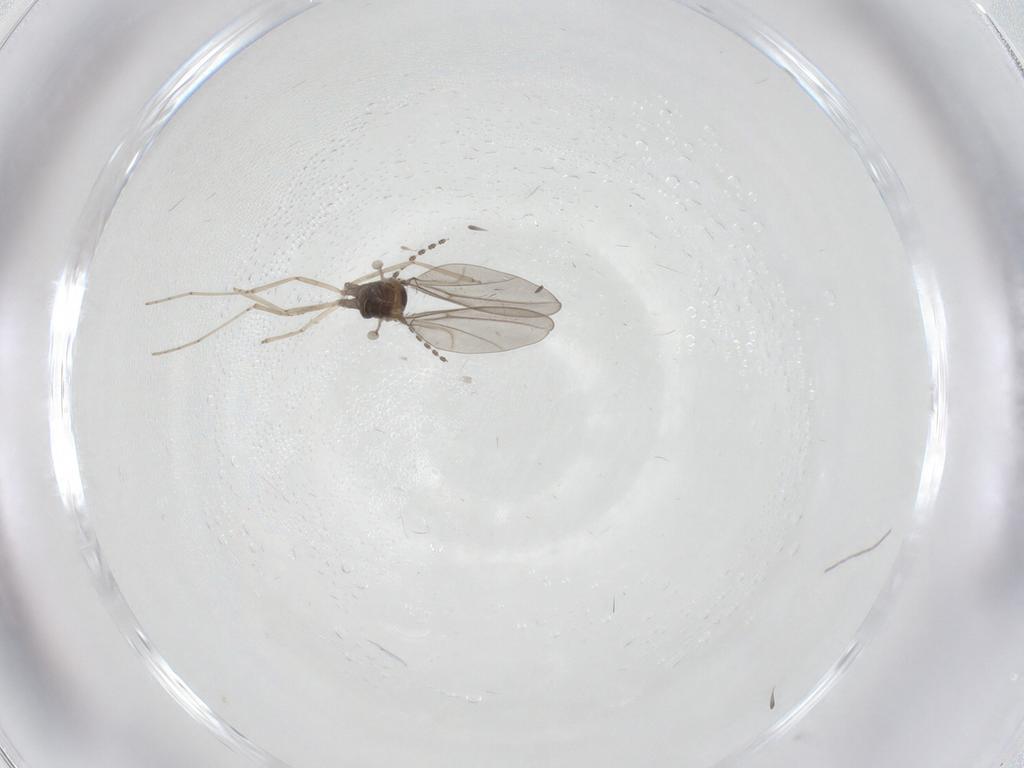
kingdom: Animalia
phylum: Arthropoda
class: Insecta
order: Diptera
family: Cecidomyiidae
